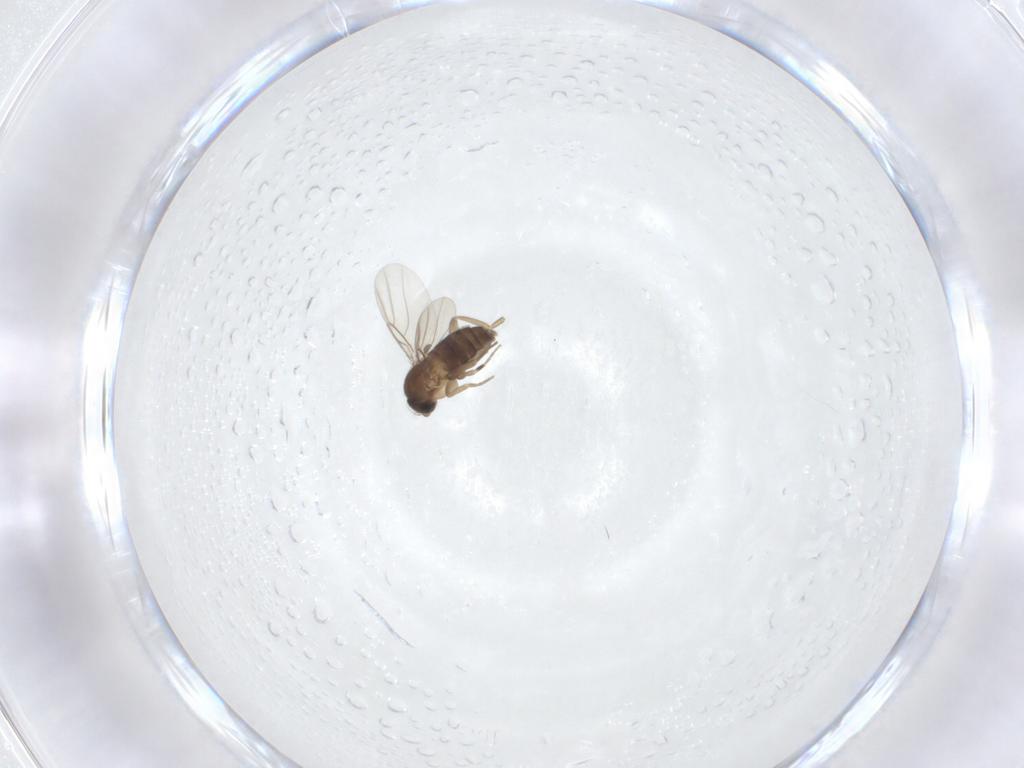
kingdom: Animalia
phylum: Arthropoda
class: Insecta
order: Diptera
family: Phoridae
